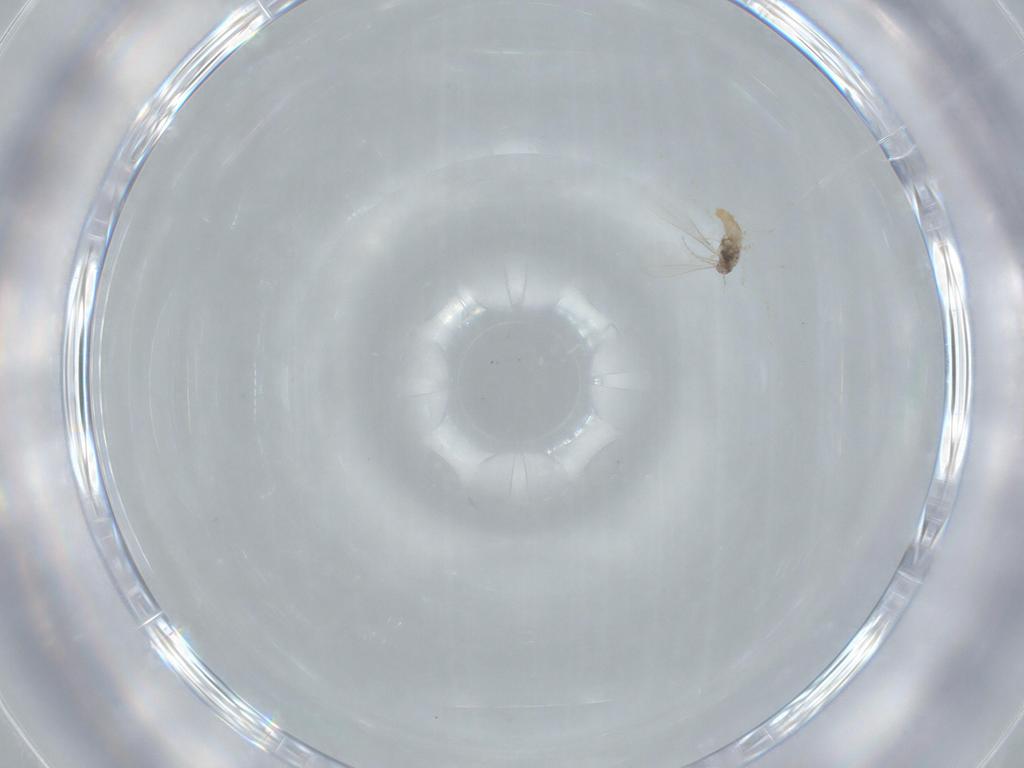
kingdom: Animalia
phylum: Arthropoda
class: Insecta
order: Diptera
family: Cecidomyiidae
